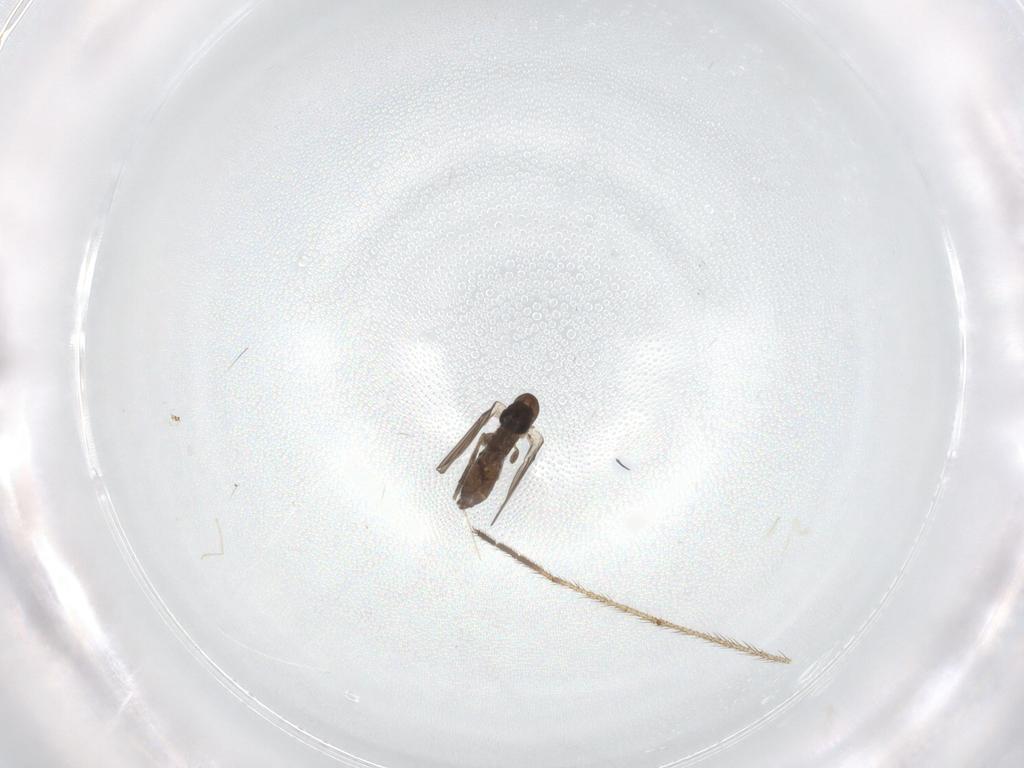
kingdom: Animalia
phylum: Arthropoda
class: Insecta
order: Diptera
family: Limoniidae
